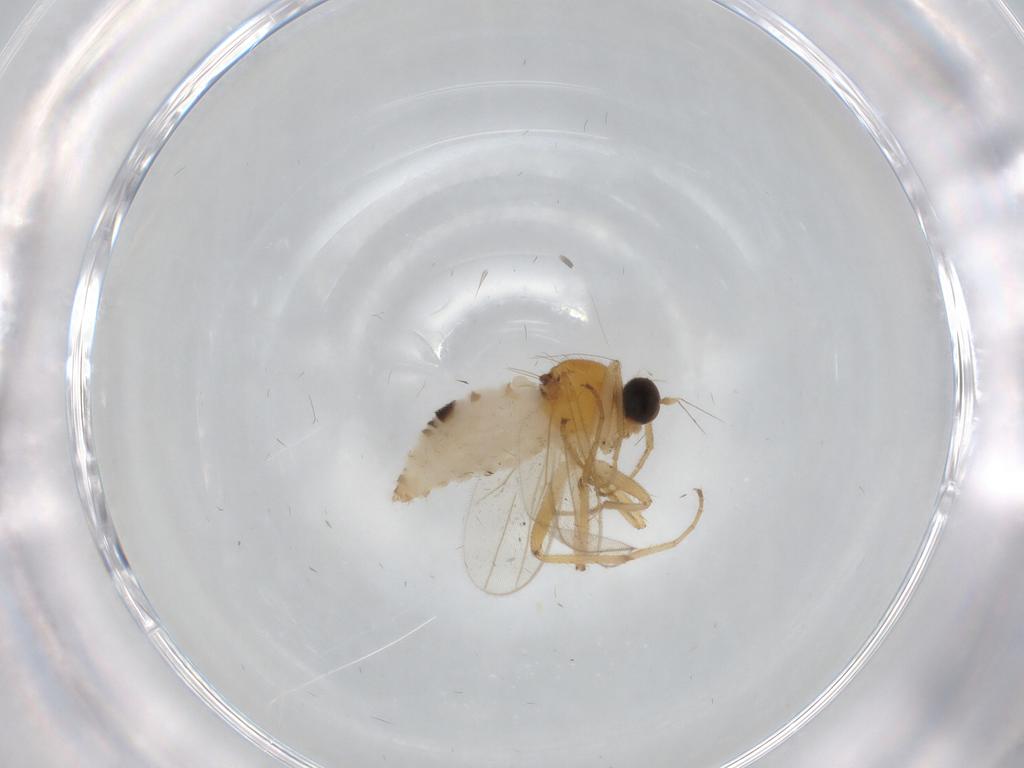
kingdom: Animalia
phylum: Arthropoda
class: Insecta
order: Diptera
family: Hybotidae
